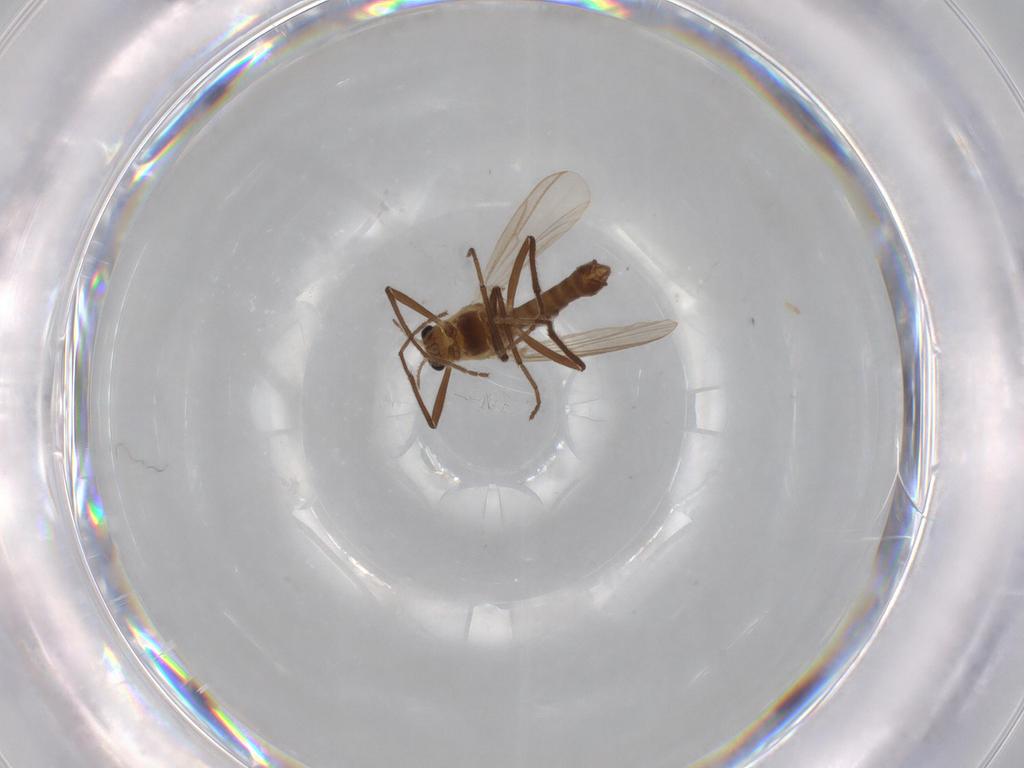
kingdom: Animalia
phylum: Arthropoda
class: Insecta
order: Diptera
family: Chironomidae
